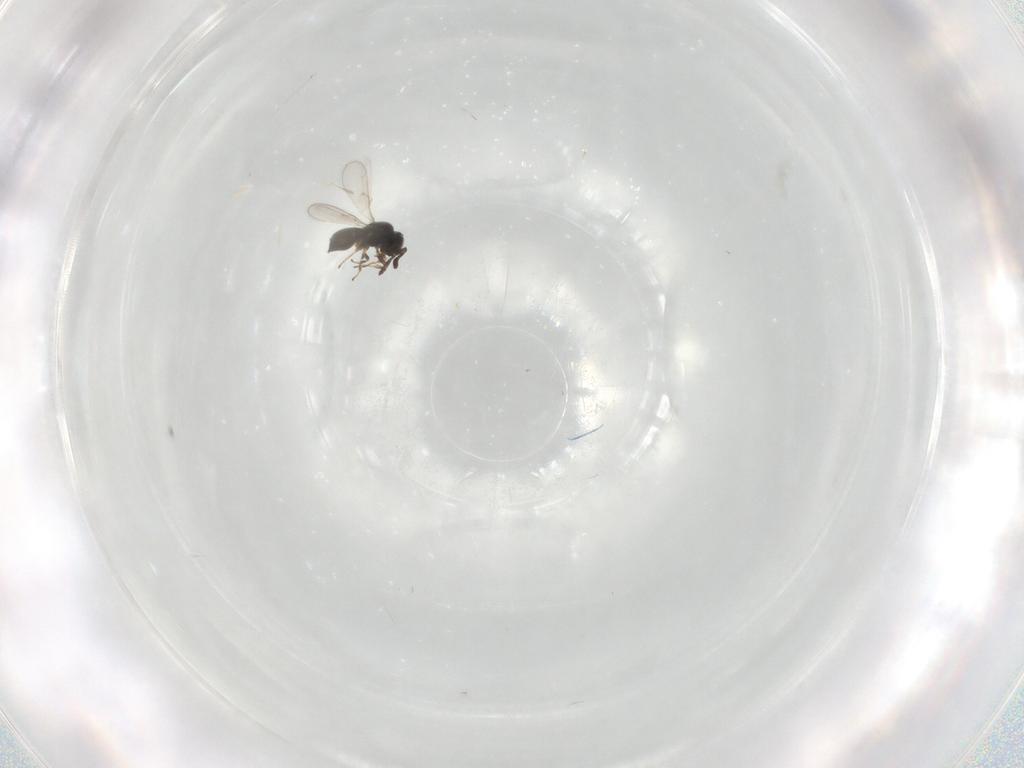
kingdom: Animalia
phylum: Arthropoda
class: Insecta
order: Hymenoptera
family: Scelionidae
